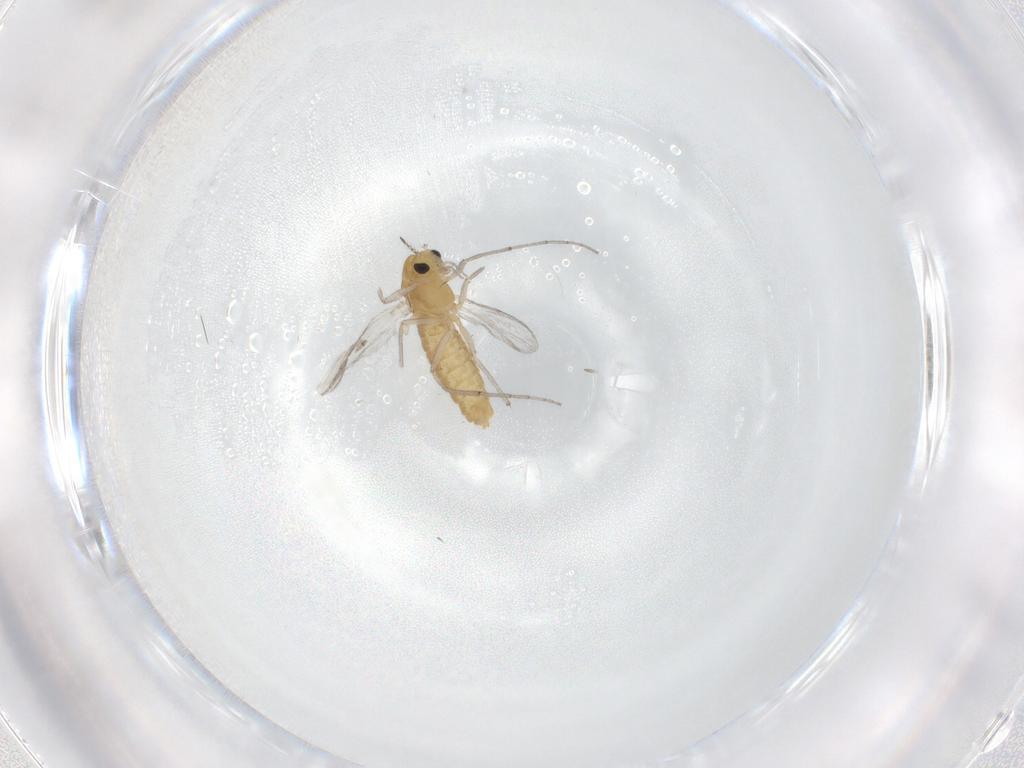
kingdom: Animalia
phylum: Arthropoda
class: Insecta
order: Diptera
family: Cecidomyiidae
